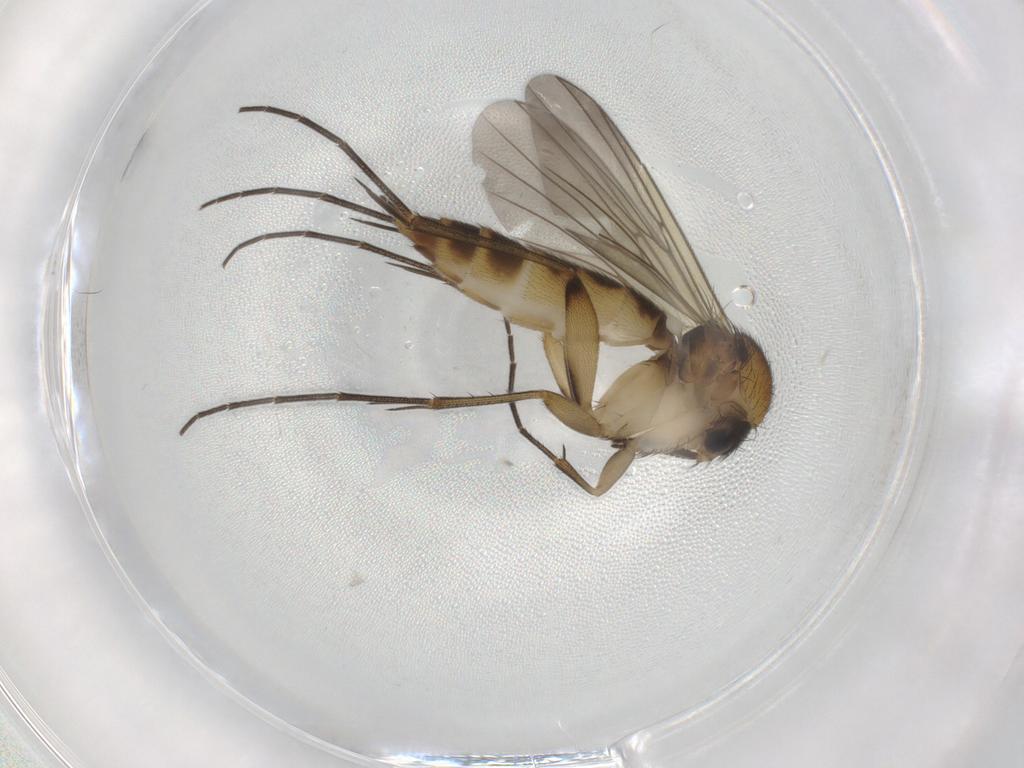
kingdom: Animalia
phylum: Arthropoda
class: Insecta
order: Diptera
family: Mycetophilidae
